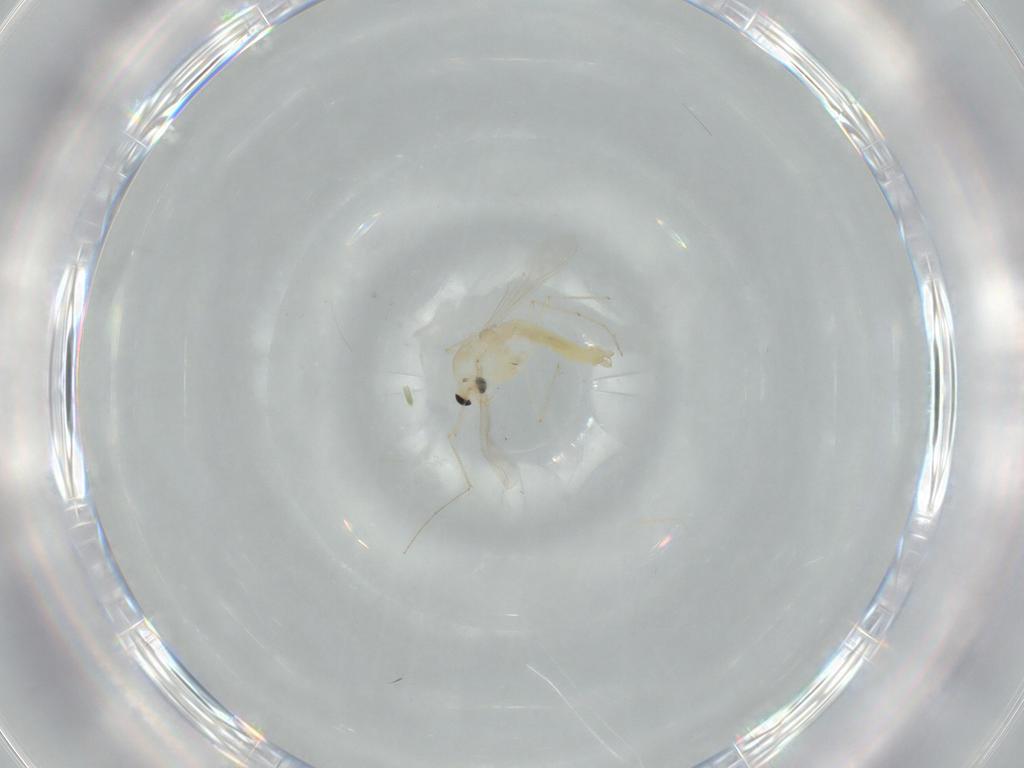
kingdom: Animalia
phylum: Arthropoda
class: Insecta
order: Diptera
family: Chironomidae
